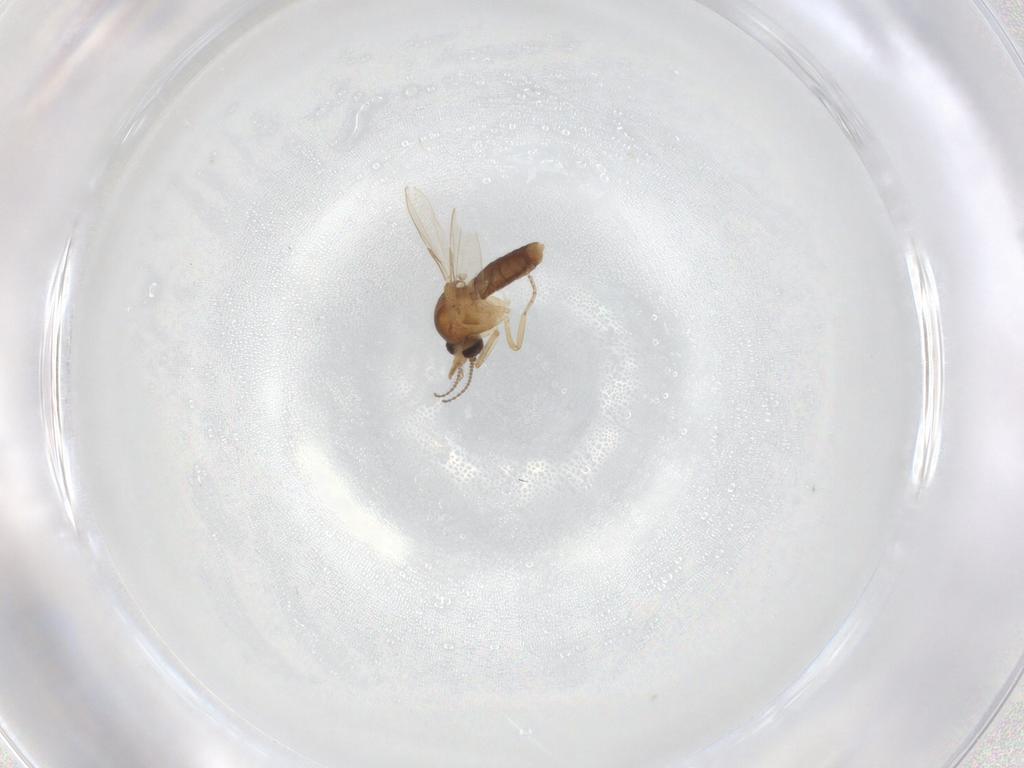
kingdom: Animalia
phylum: Arthropoda
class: Insecta
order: Diptera
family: Ceratopogonidae
